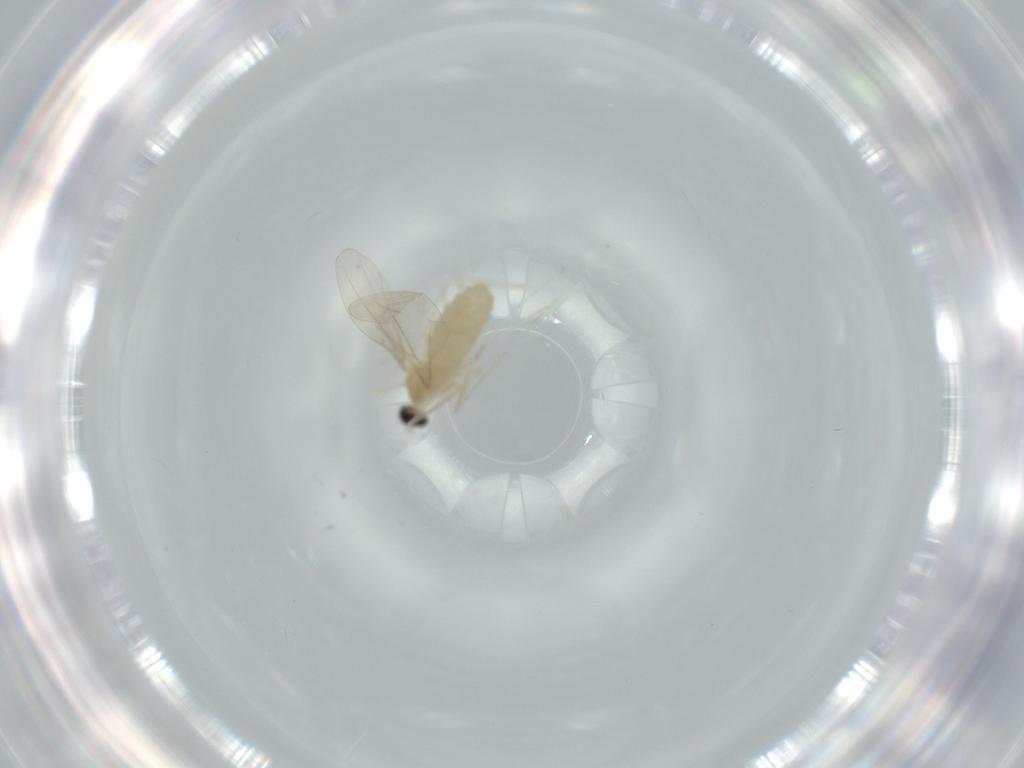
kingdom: Animalia
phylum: Arthropoda
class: Insecta
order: Diptera
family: Cecidomyiidae
